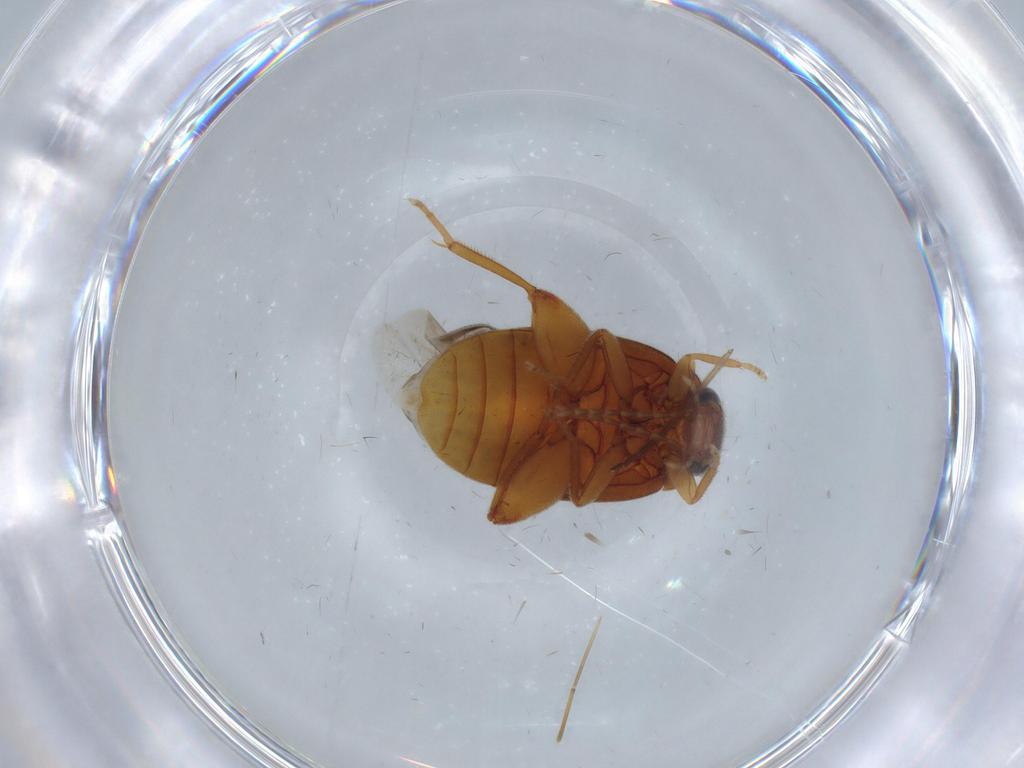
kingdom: Animalia
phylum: Arthropoda
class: Insecta
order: Coleoptera
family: Scirtidae
